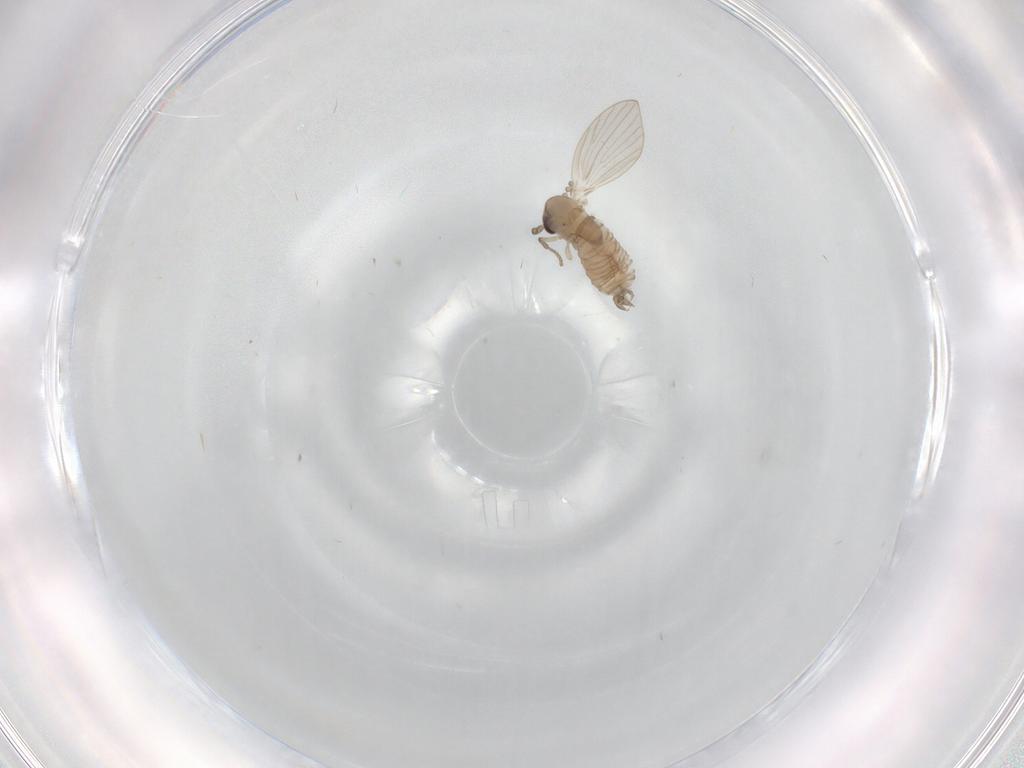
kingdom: Animalia
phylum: Arthropoda
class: Insecta
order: Diptera
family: Psychodidae
